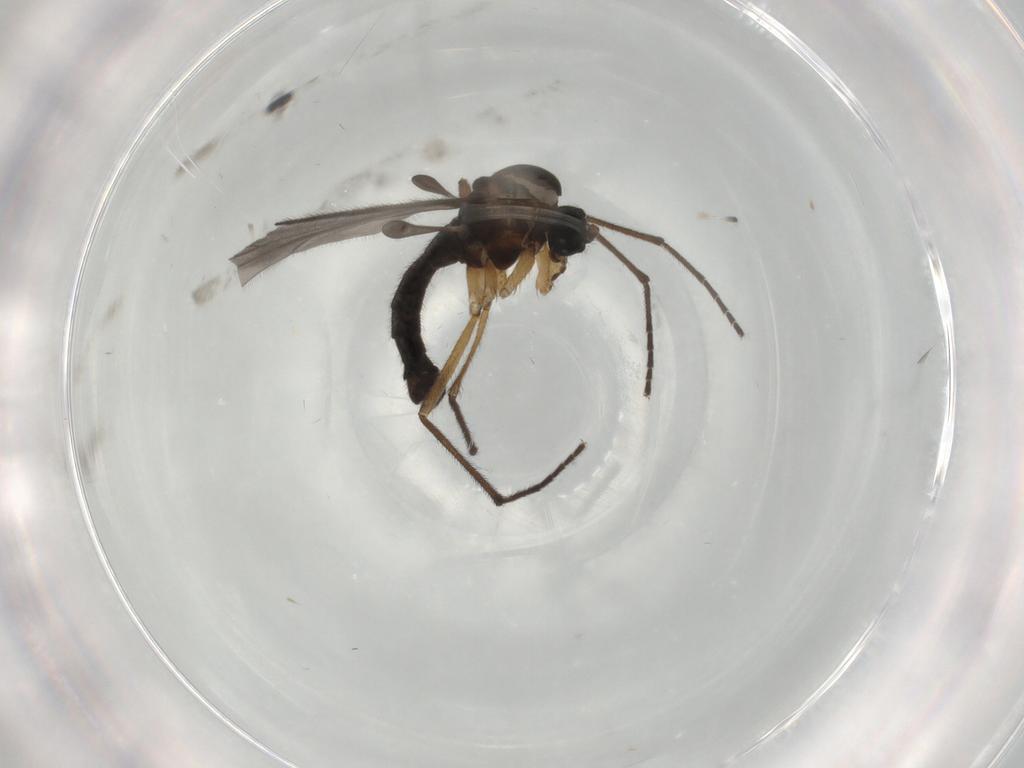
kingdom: Animalia
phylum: Arthropoda
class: Insecta
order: Diptera
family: Sciaridae
